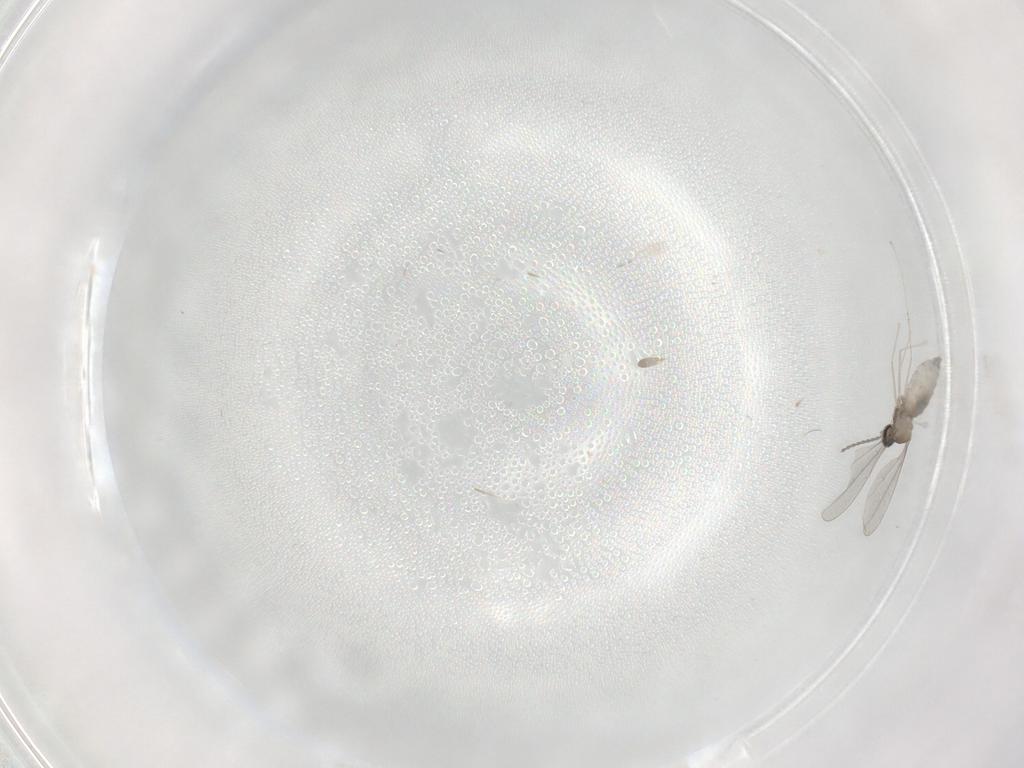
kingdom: Animalia
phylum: Arthropoda
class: Insecta
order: Diptera
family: Cecidomyiidae
